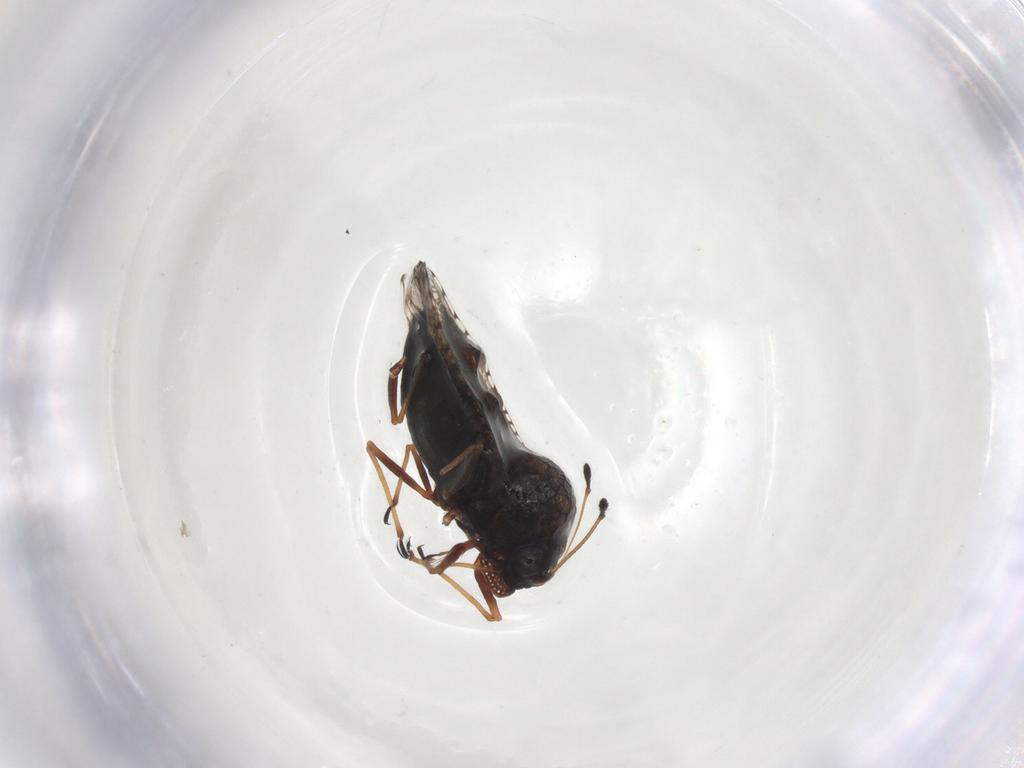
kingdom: Animalia
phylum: Arthropoda
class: Insecta
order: Hemiptera
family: Tingidae
